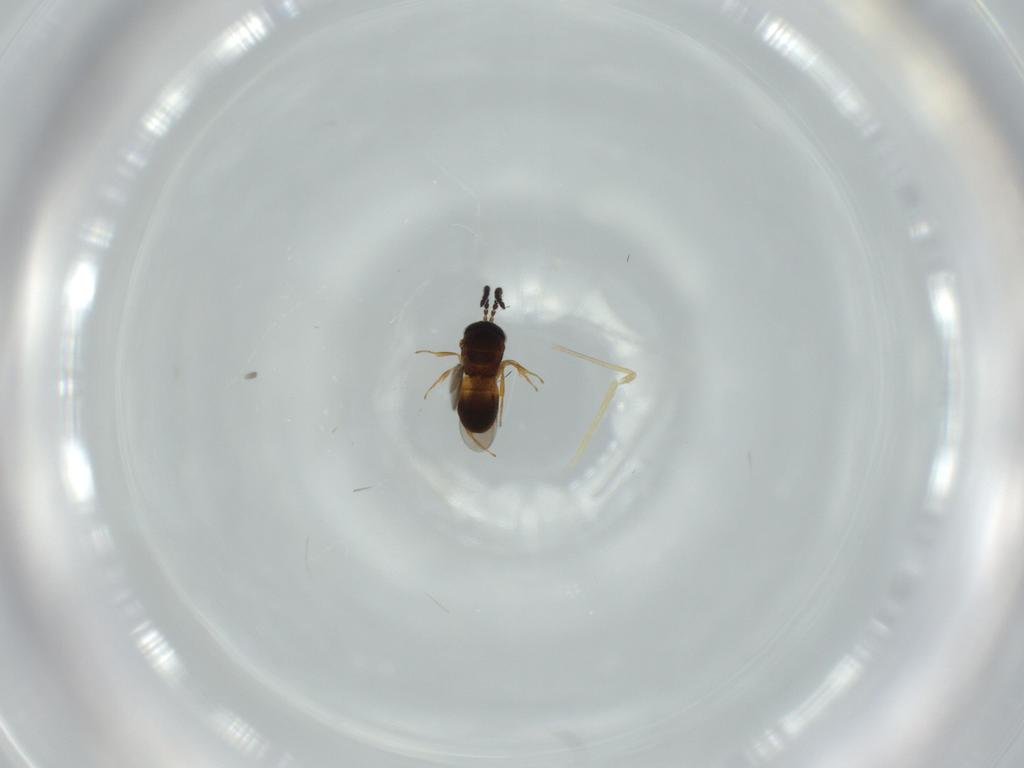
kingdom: Animalia
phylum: Arthropoda
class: Insecta
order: Hymenoptera
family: Scelionidae
